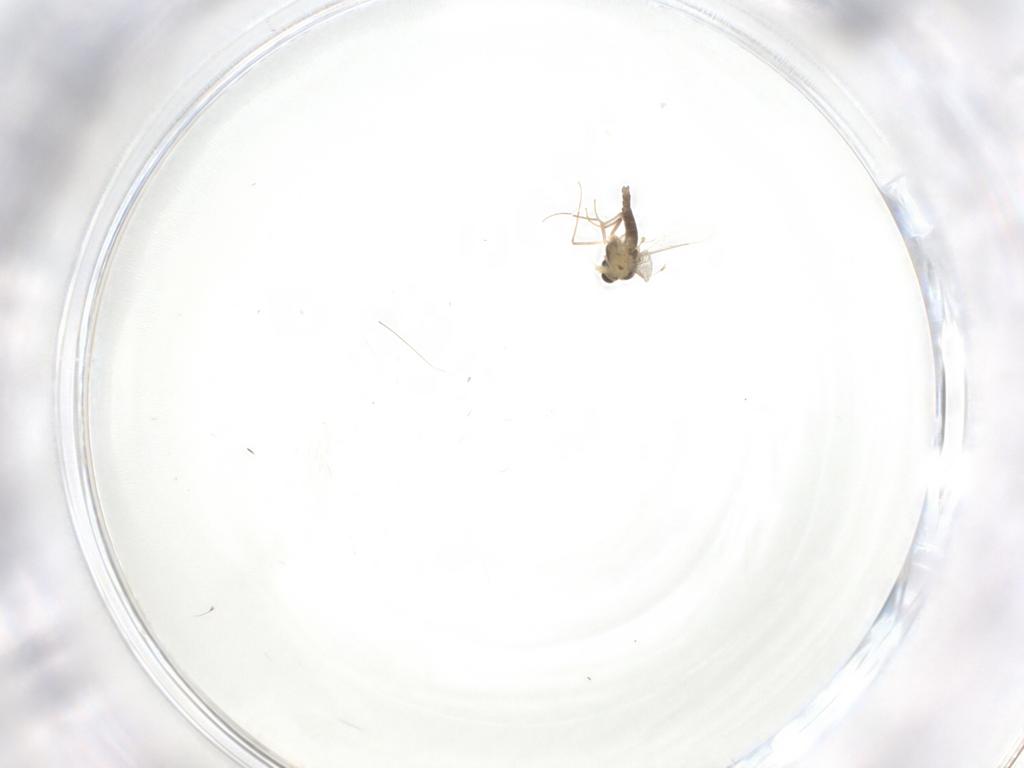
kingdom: Animalia
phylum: Arthropoda
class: Insecta
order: Diptera
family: Chironomidae
